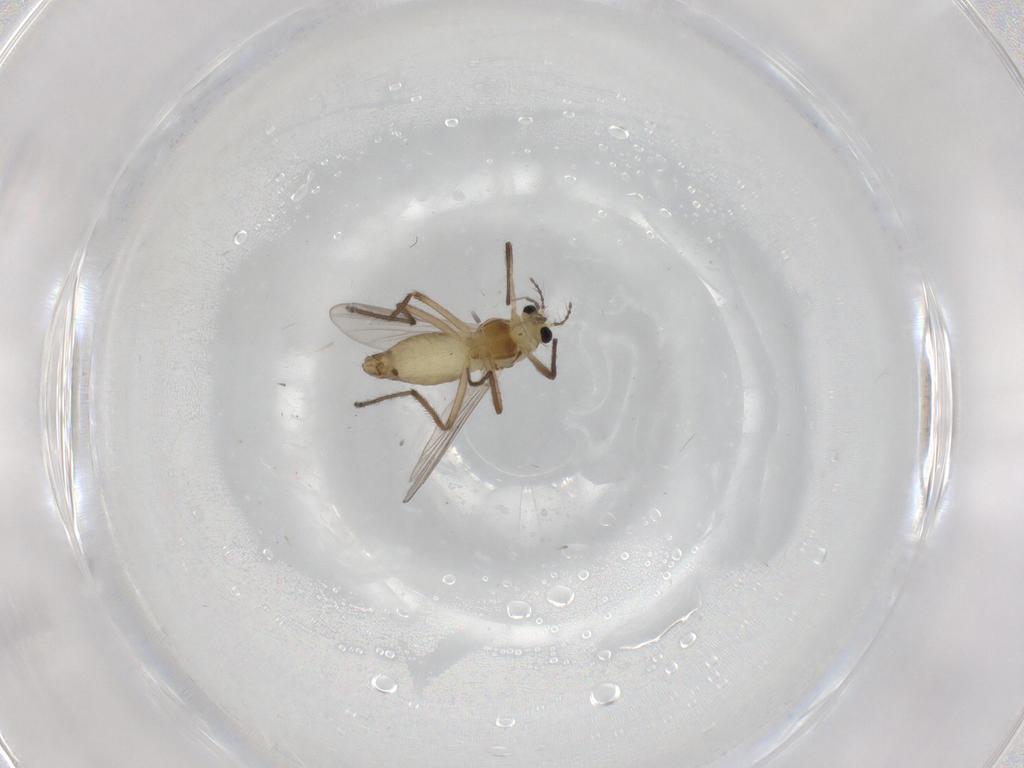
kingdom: Animalia
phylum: Arthropoda
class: Insecta
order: Diptera
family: Chironomidae
